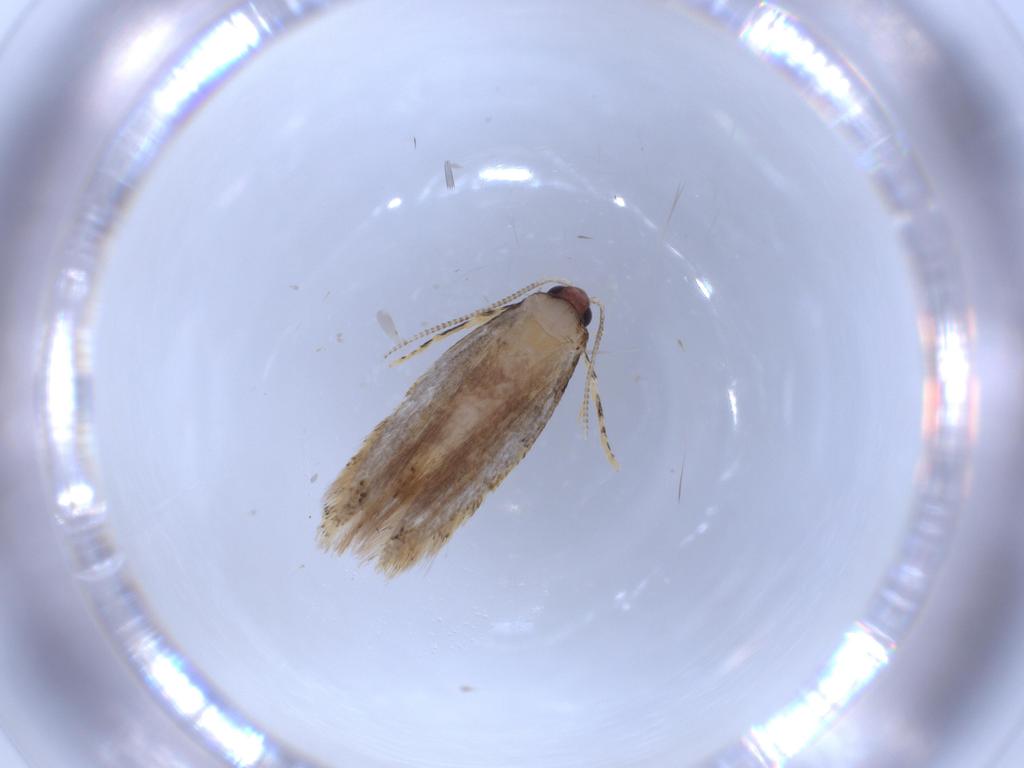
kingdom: Animalia
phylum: Arthropoda
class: Insecta
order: Lepidoptera
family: Tineidae
